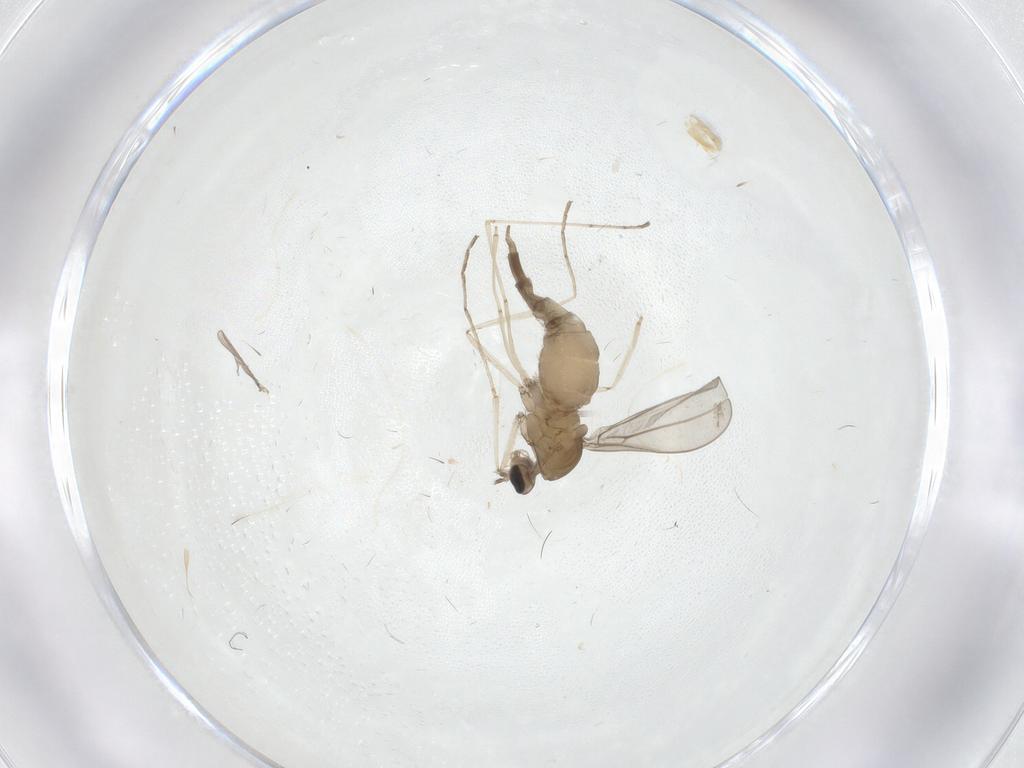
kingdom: Animalia
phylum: Arthropoda
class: Insecta
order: Diptera
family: Cecidomyiidae
